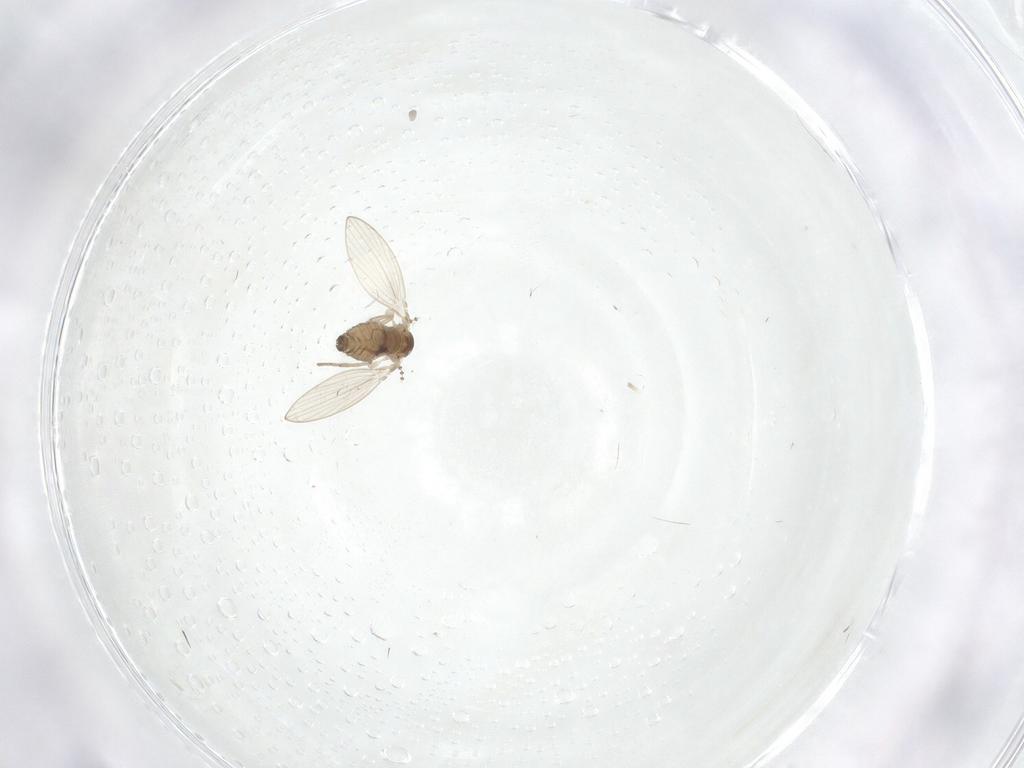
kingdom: Animalia
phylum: Arthropoda
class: Insecta
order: Diptera
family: Psychodidae
